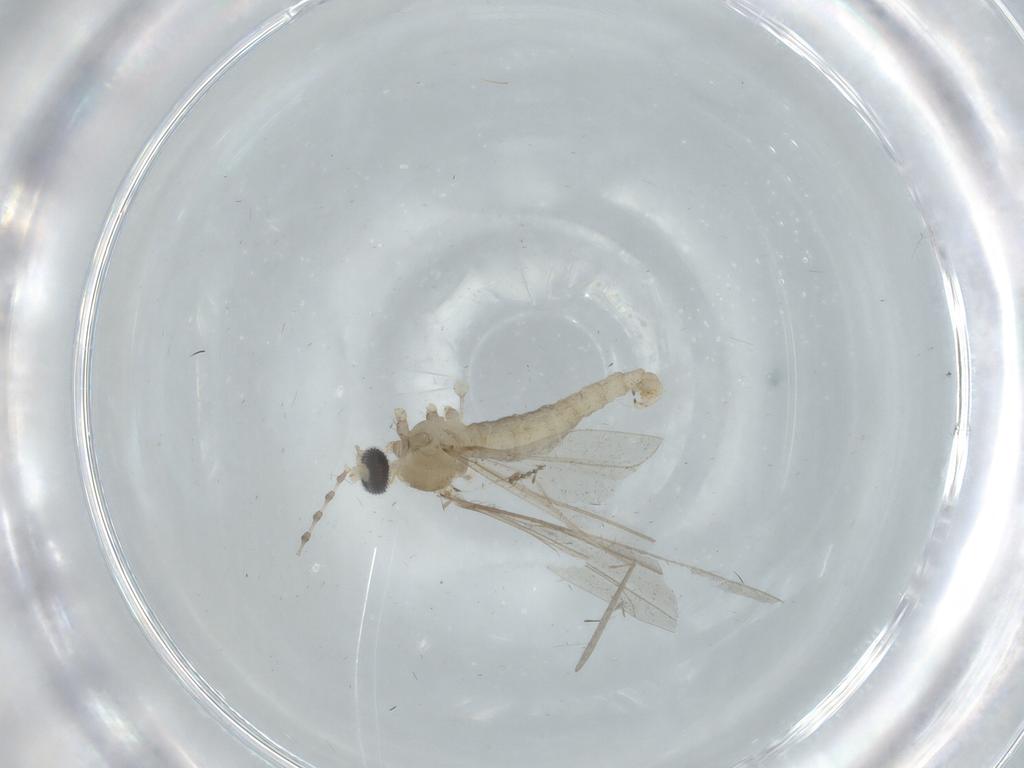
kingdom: Animalia
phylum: Arthropoda
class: Insecta
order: Diptera
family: Cecidomyiidae
